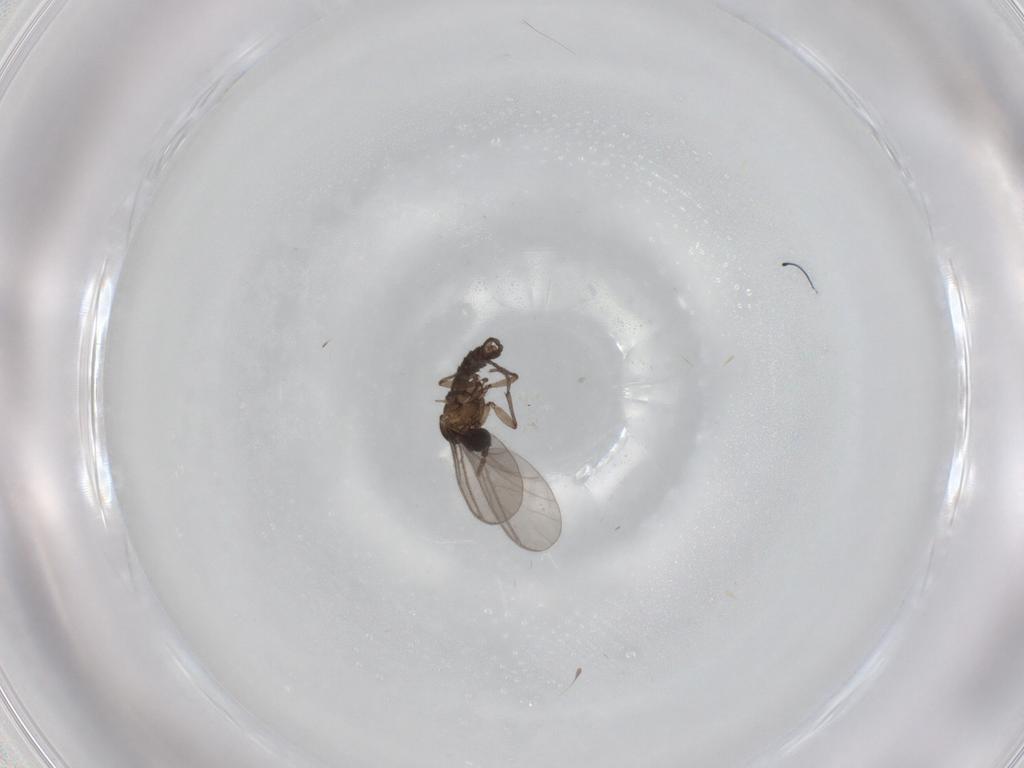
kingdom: Animalia
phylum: Arthropoda
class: Insecta
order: Diptera
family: Sciaridae
